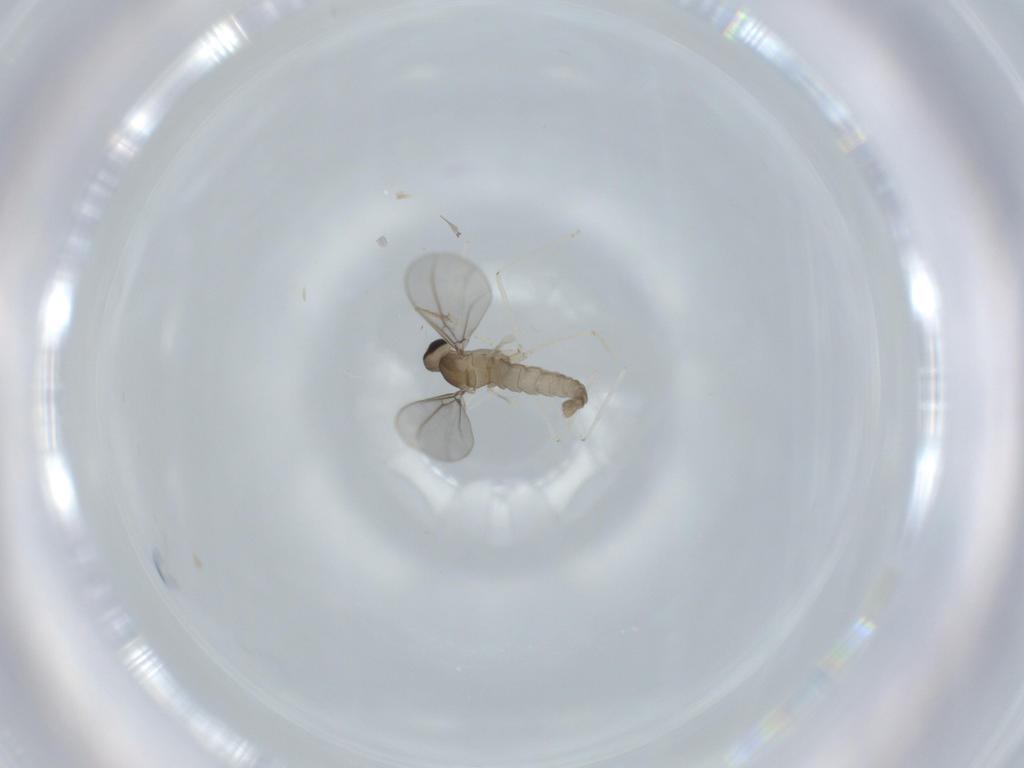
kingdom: Animalia
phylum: Arthropoda
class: Insecta
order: Diptera
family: Cecidomyiidae
